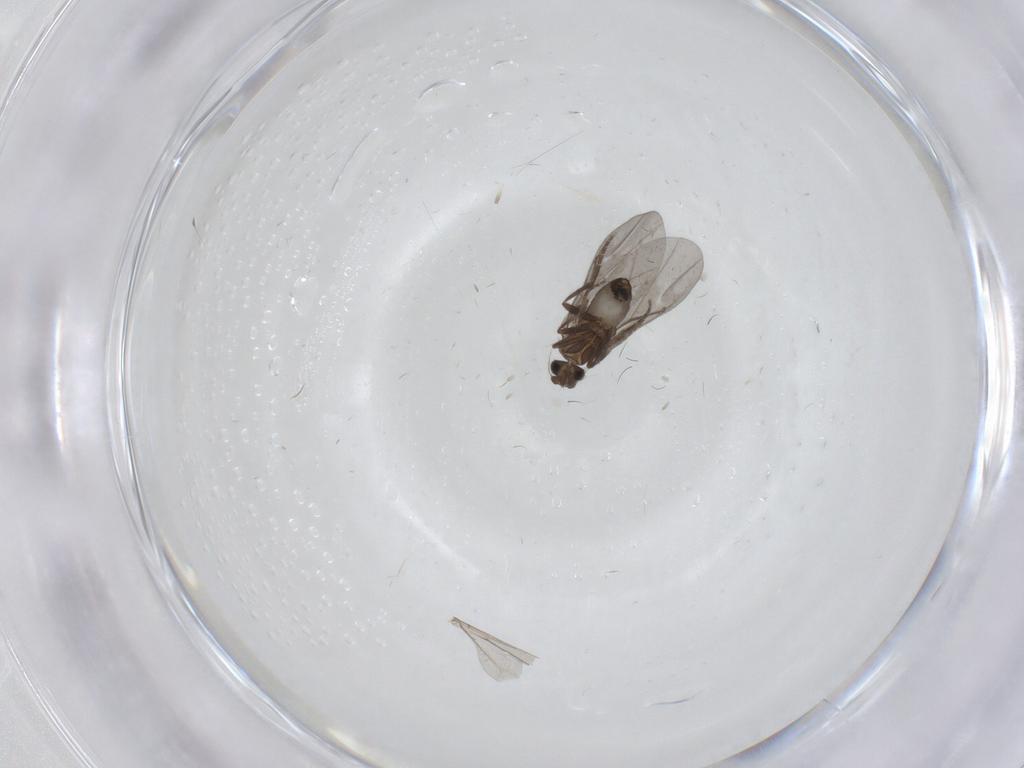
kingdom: Animalia
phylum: Arthropoda
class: Insecta
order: Diptera
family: Phoridae
